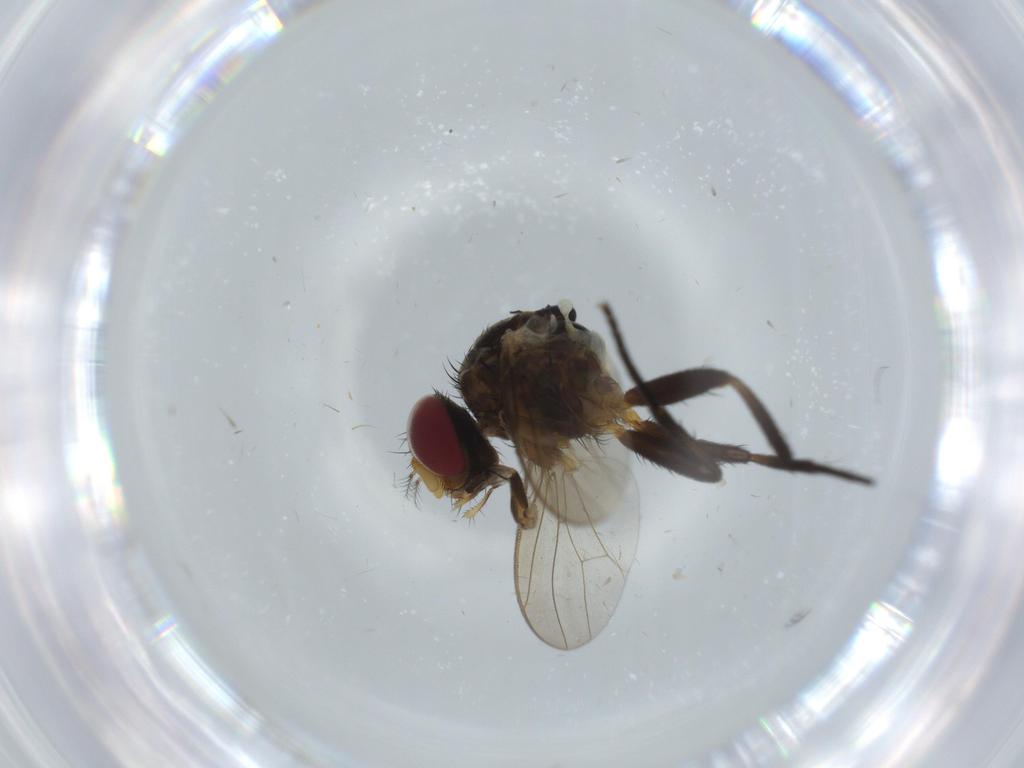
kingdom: Animalia
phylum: Arthropoda
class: Insecta
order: Diptera
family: Anthomyiidae
